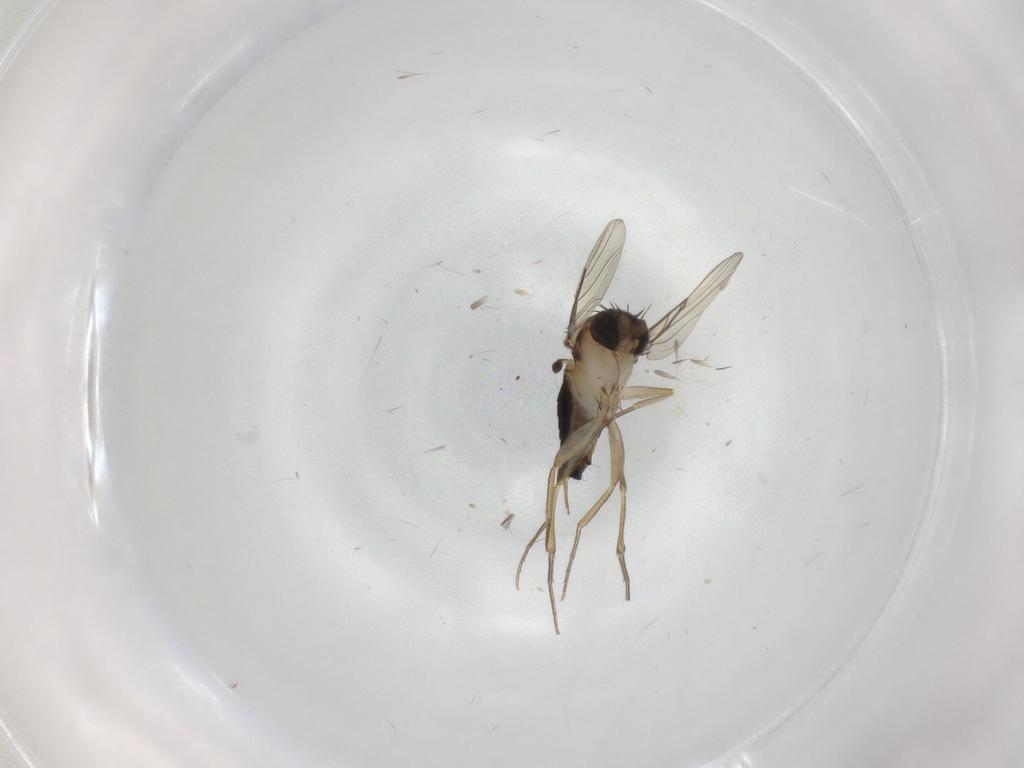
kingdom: Animalia
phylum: Arthropoda
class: Insecta
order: Diptera
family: Phoridae
